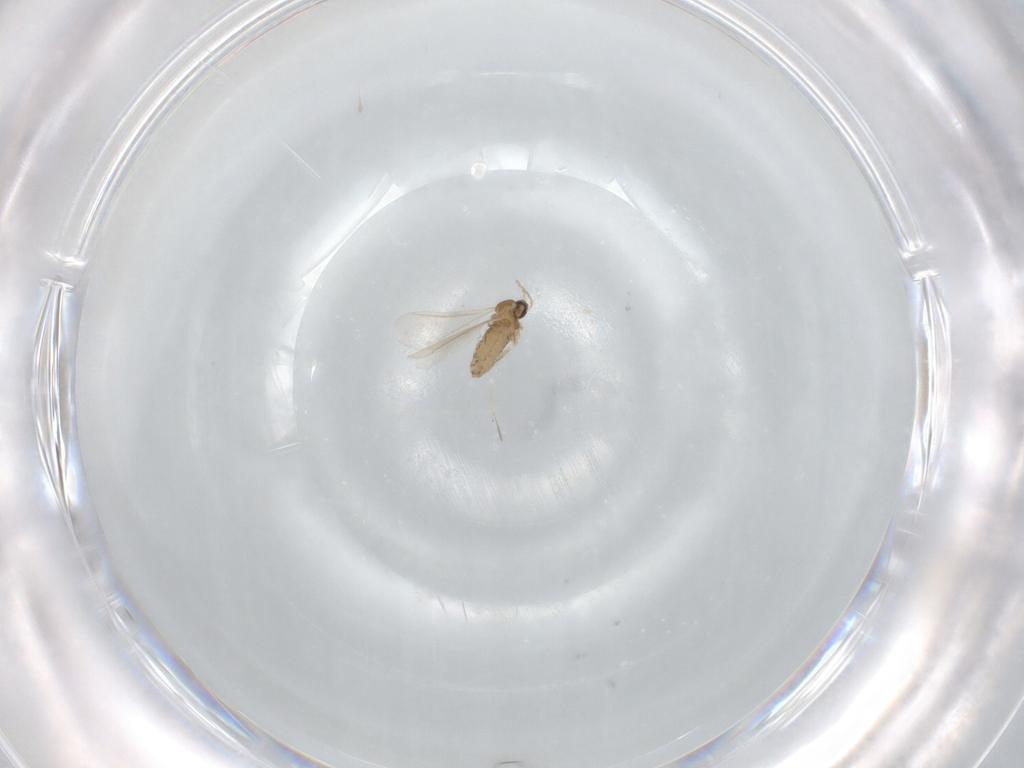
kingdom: Animalia
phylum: Arthropoda
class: Insecta
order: Diptera
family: Cecidomyiidae
